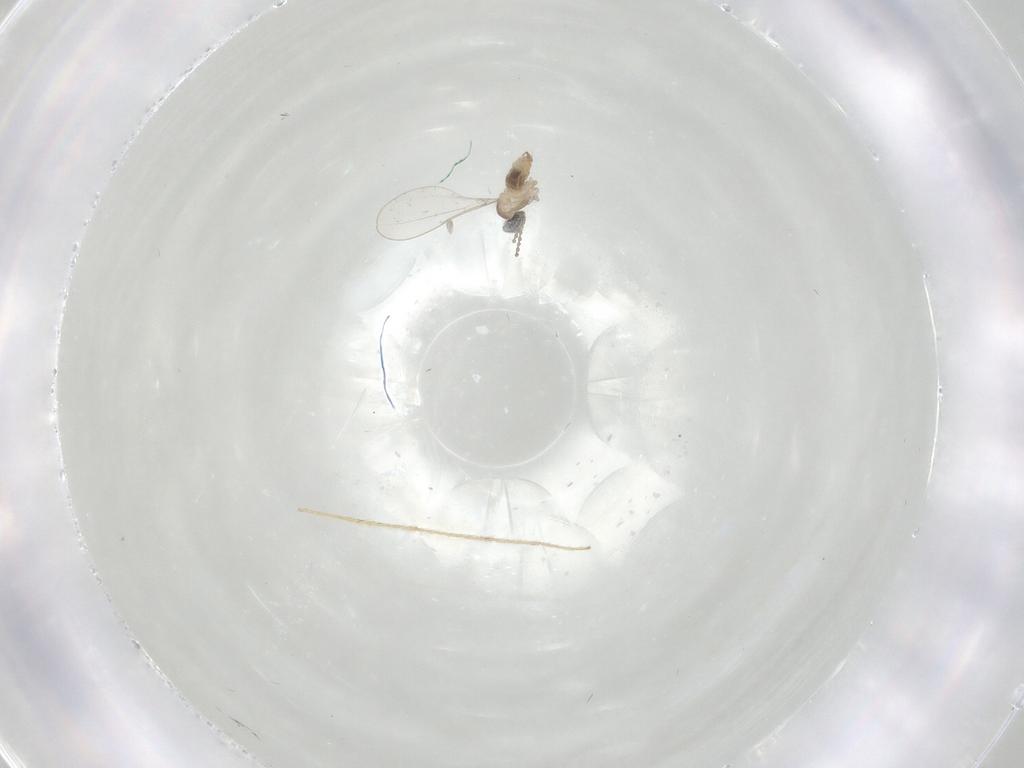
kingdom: Animalia
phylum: Arthropoda
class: Insecta
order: Diptera
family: Cecidomyiidae
